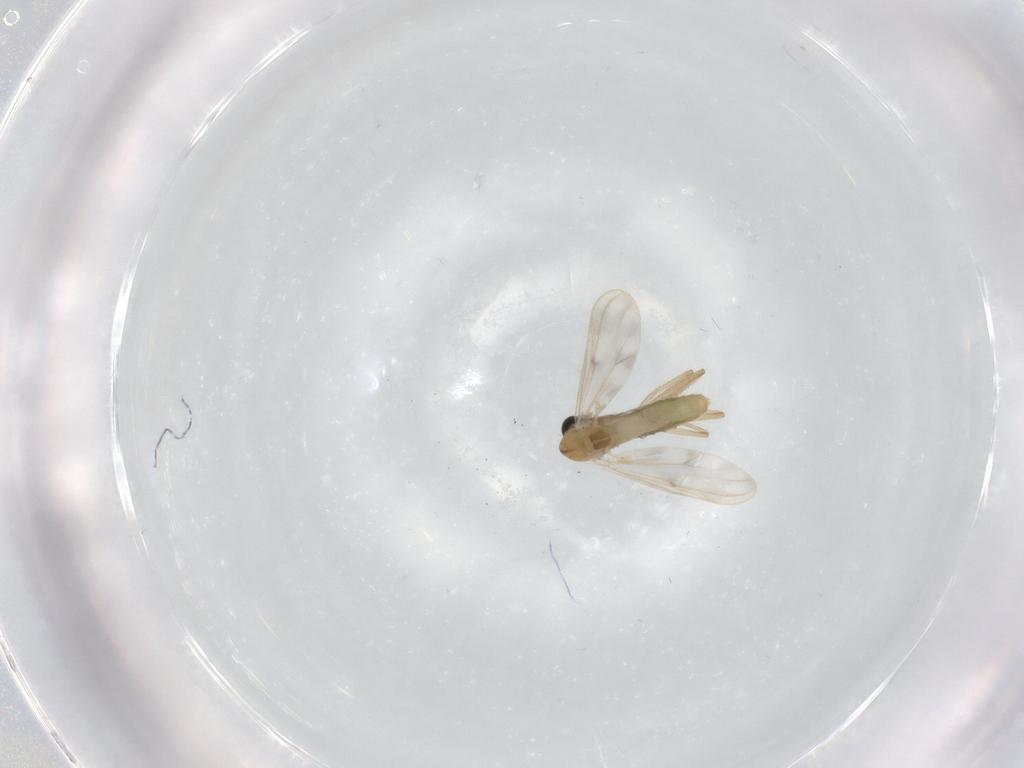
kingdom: Animalia
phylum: Arthropoda
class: Insecta
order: Diptera
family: Chironomidae
